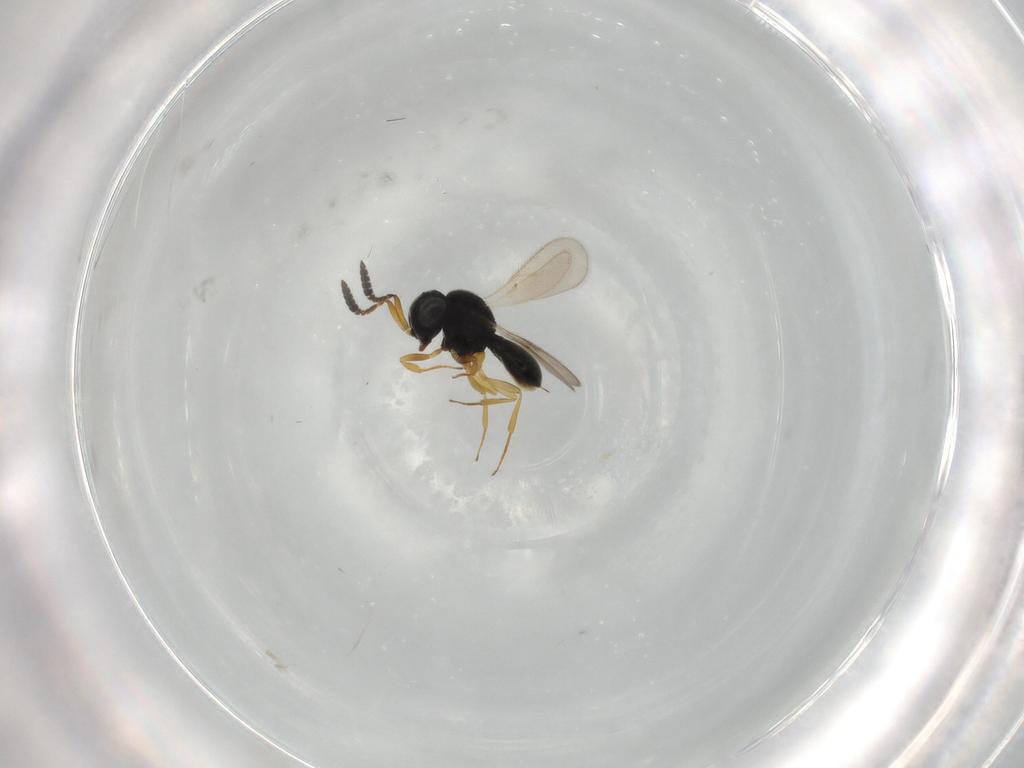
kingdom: Animalia
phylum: Arthropoda
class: Insecta
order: Hymenoptera
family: Scelionidae
